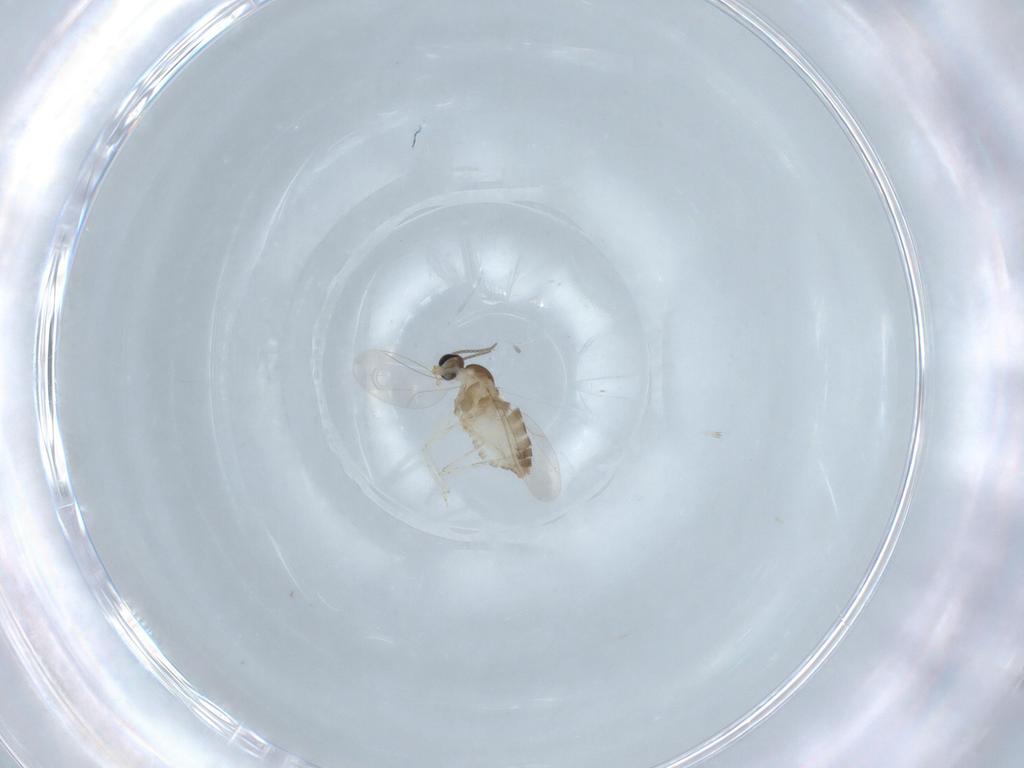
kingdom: Animalia
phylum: Arthropoda
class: Insecta
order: Diptera
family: Cecidomyiidae
